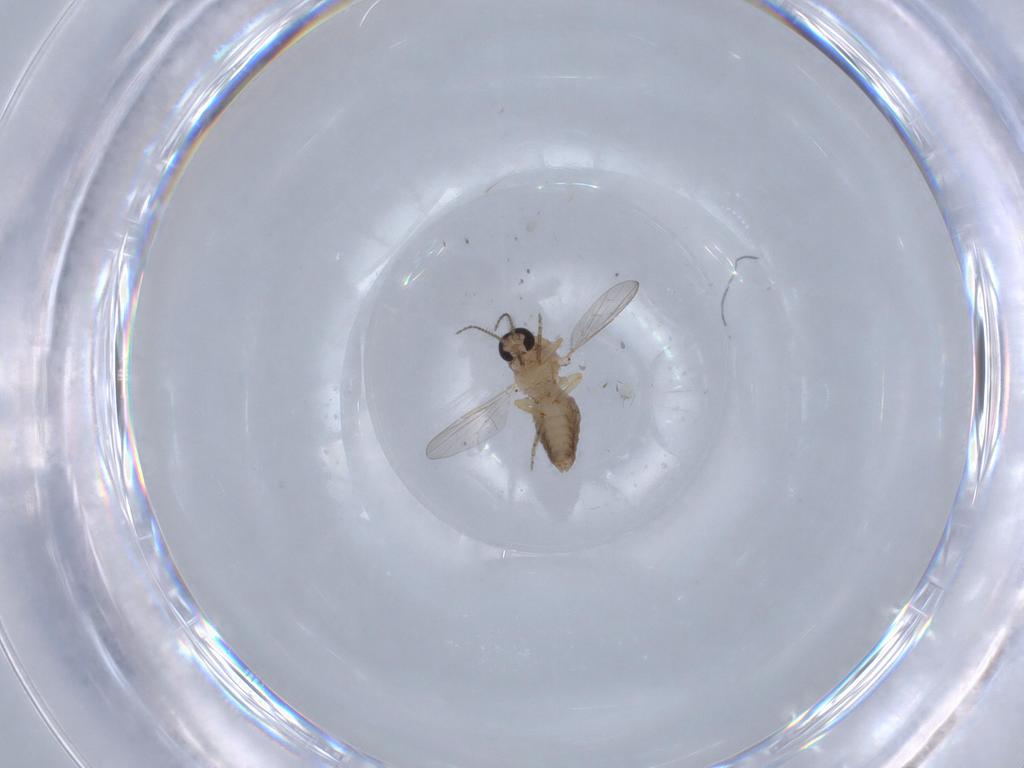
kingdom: Animalia
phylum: Arthropoda
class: Insecta
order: Diptera
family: Ceratopogonidae
